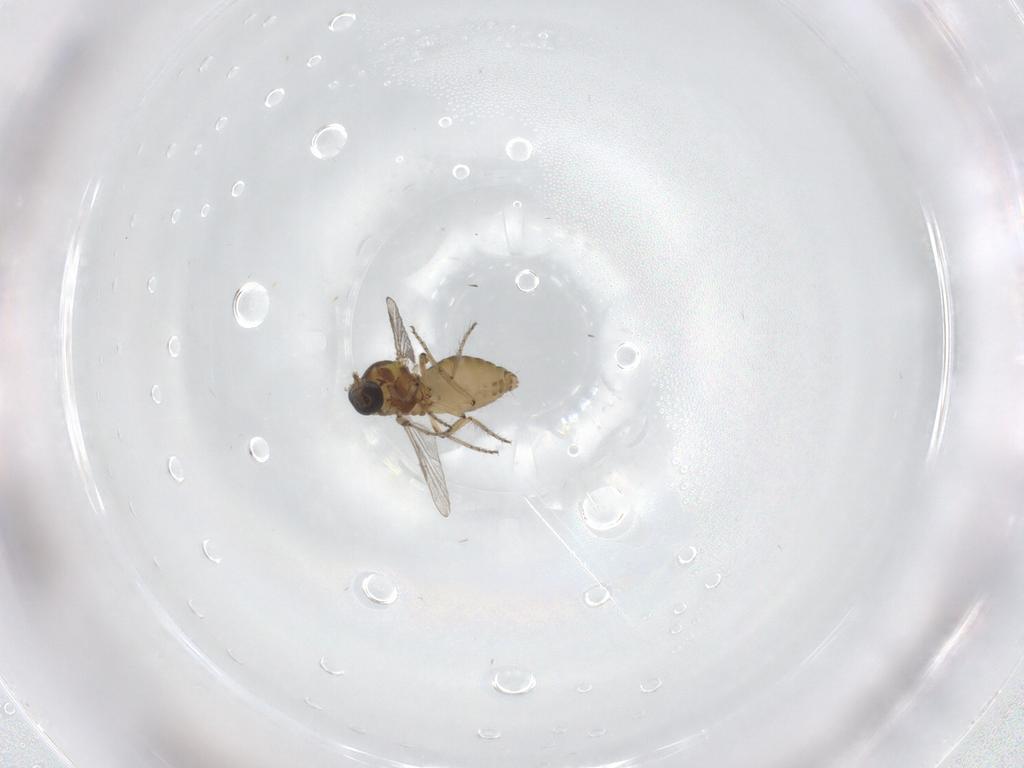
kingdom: Animalia
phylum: Arthropoda
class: Insecta
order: Diptera
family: Ceratopogonidae
